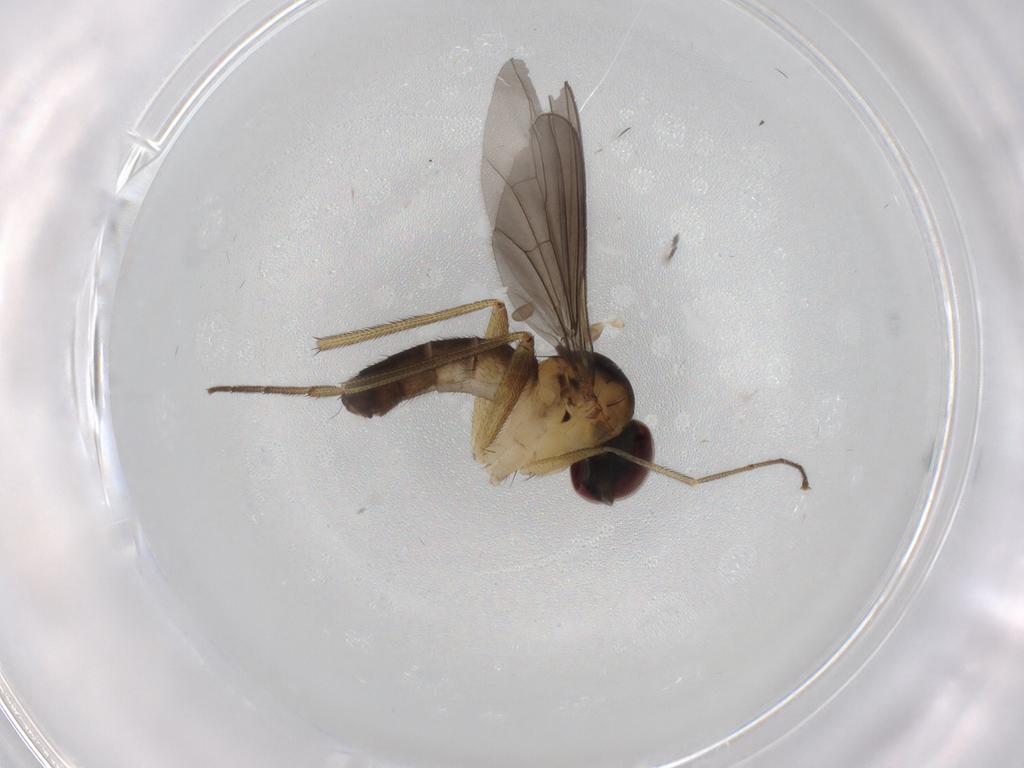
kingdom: Animalia
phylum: Arthropoda
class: Insecta
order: Diptera
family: Dolichopodidae
